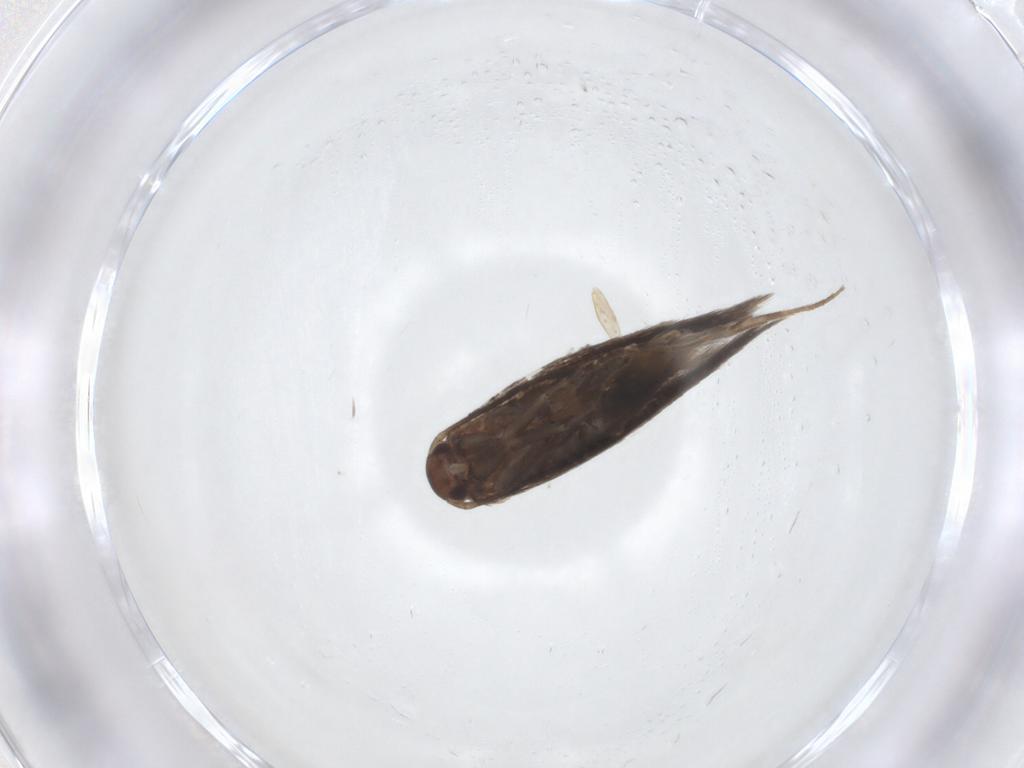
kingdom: Animalia
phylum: Arthropoda
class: Insecta
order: Lepidoptera
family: Elachistidae
